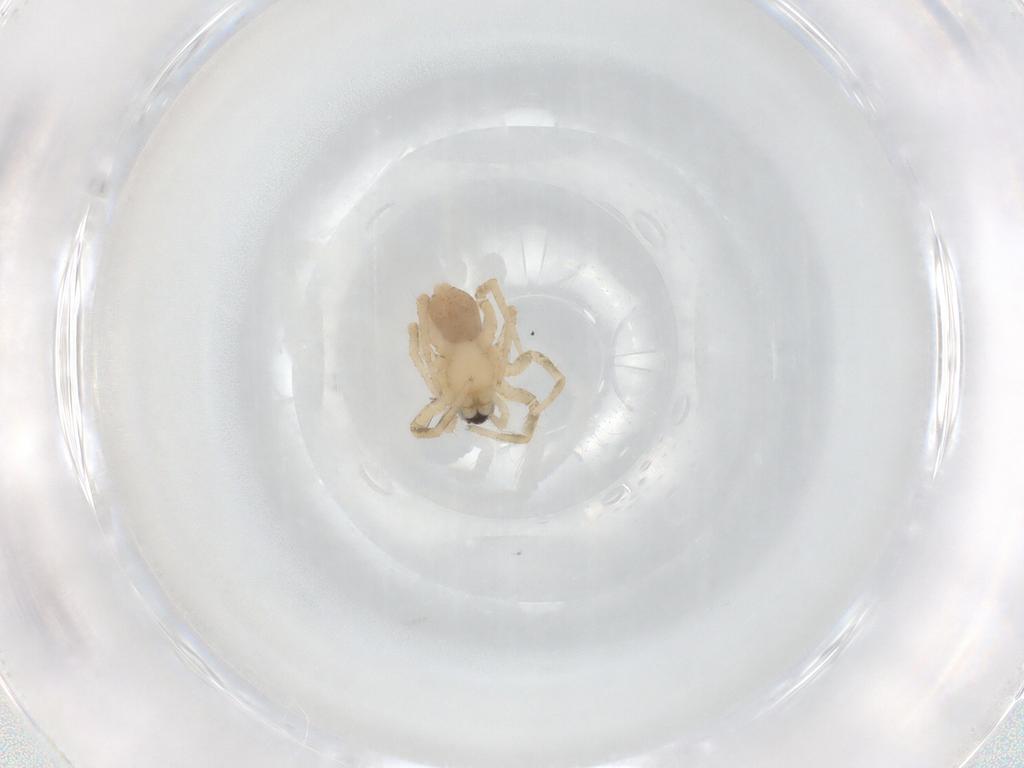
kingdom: Animalia
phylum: Arthropoda
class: Arachnida
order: Araneae
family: Lycosidae
